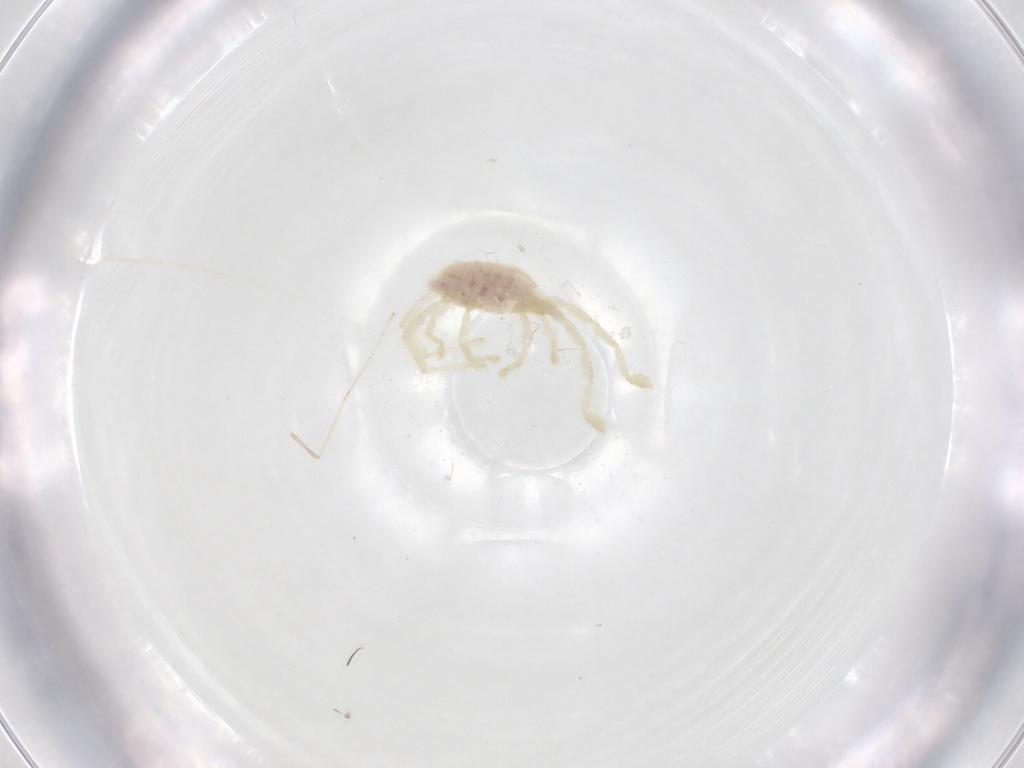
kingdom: Animalia
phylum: Arthropoda
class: Arachnida
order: Trombidiformes
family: Erythraeidae
